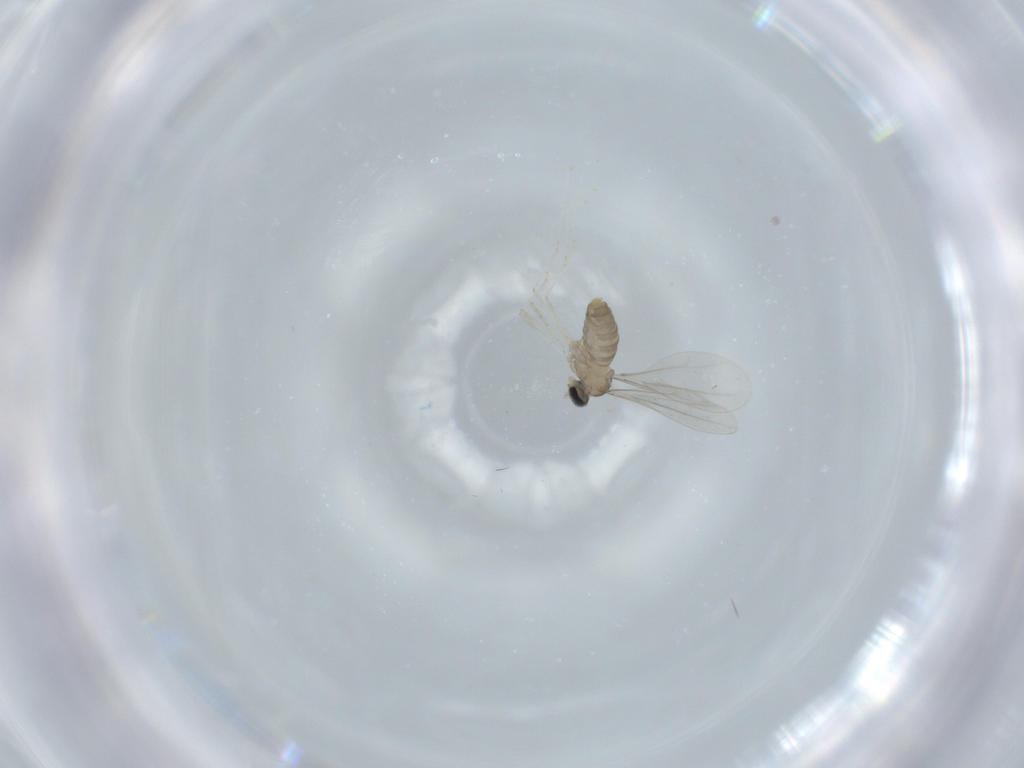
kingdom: Animalia
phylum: Arthropoda
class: Insecta
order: Diptera
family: Cecidomyiidae
